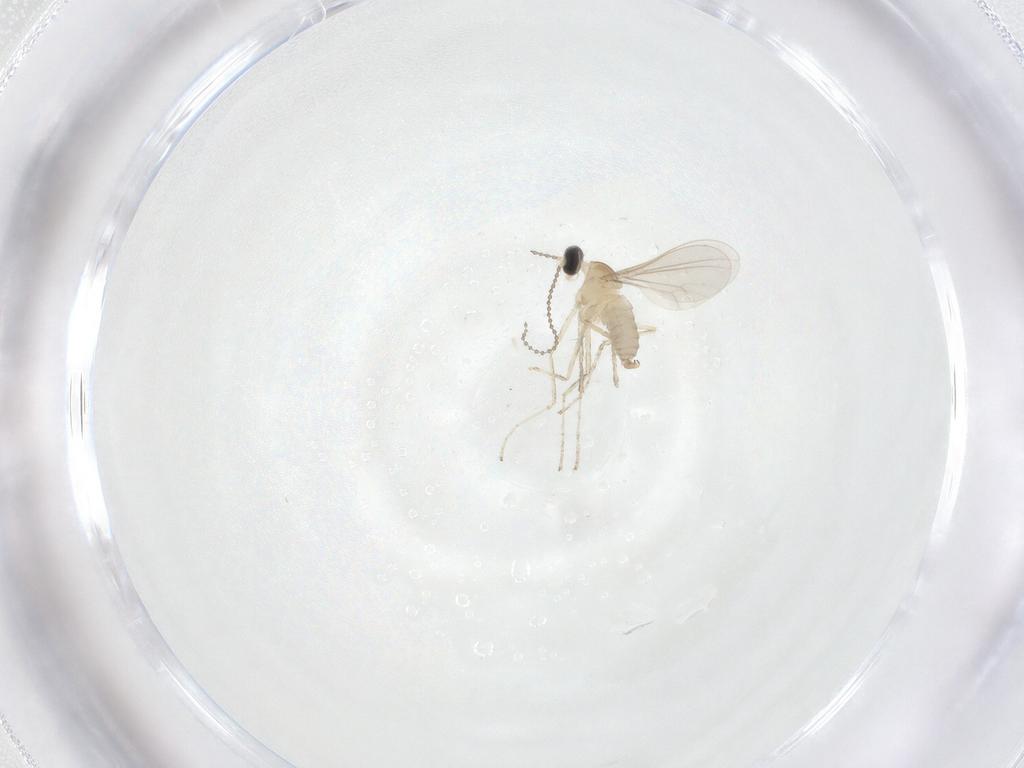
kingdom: Animalia
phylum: Arthropoda
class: Insecta
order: Diptera
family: Cecidomyiidae
